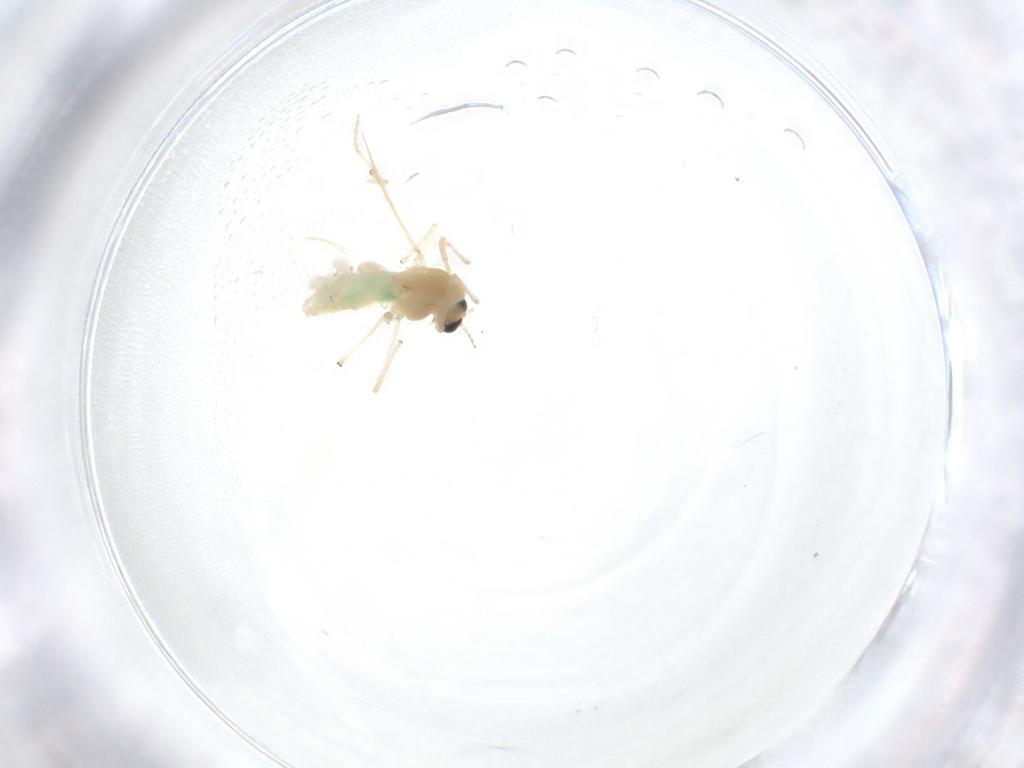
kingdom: Animalia
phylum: Arthropoda
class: Insecta
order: Diptera
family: Chironomidae
